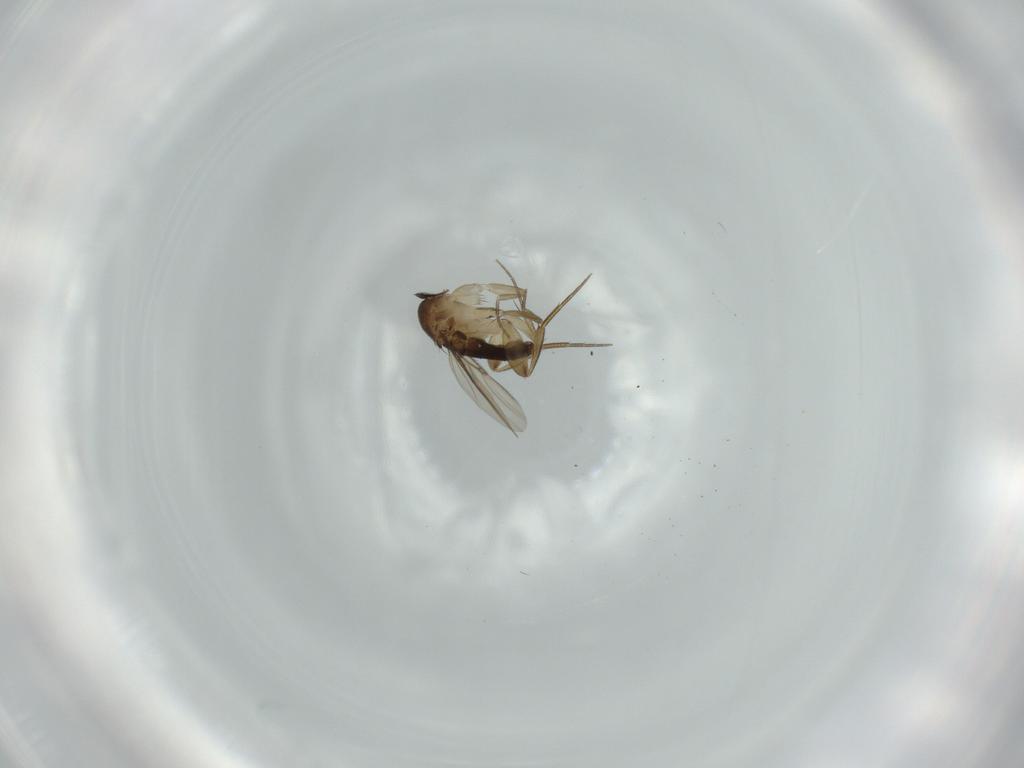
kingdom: Animalia
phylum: Arthropoda
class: Insecta
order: Diptera
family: Phoridae
